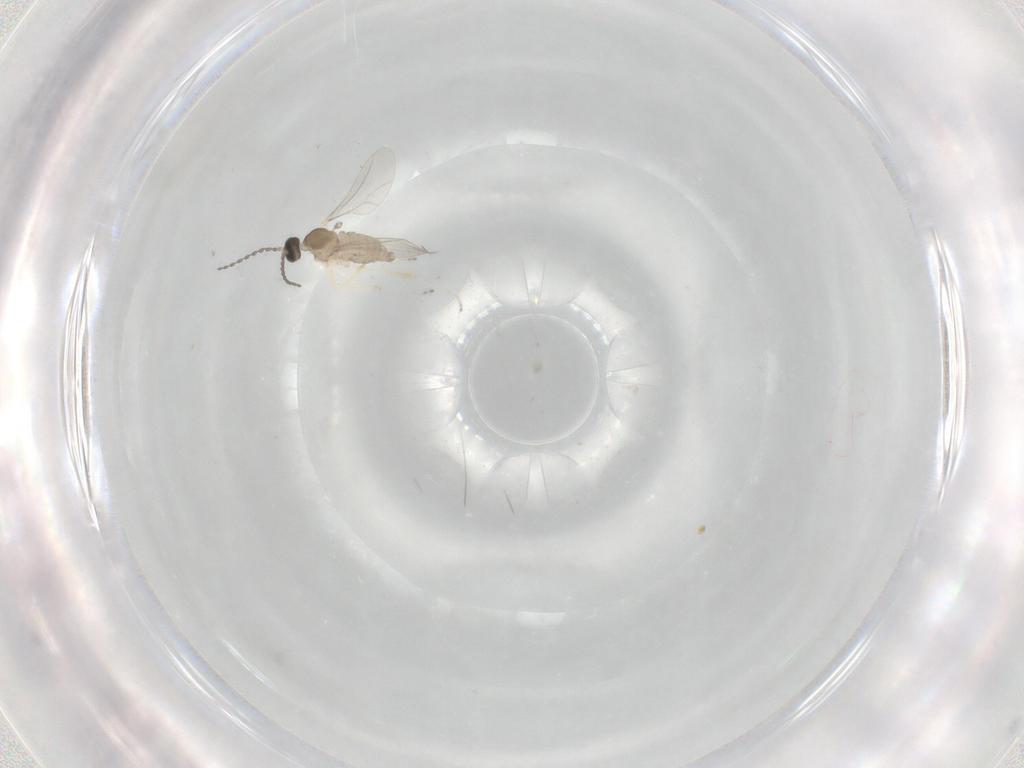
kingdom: Animalia
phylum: Arthropoda
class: Insecta
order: Diptera
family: Cecidomyiidae
